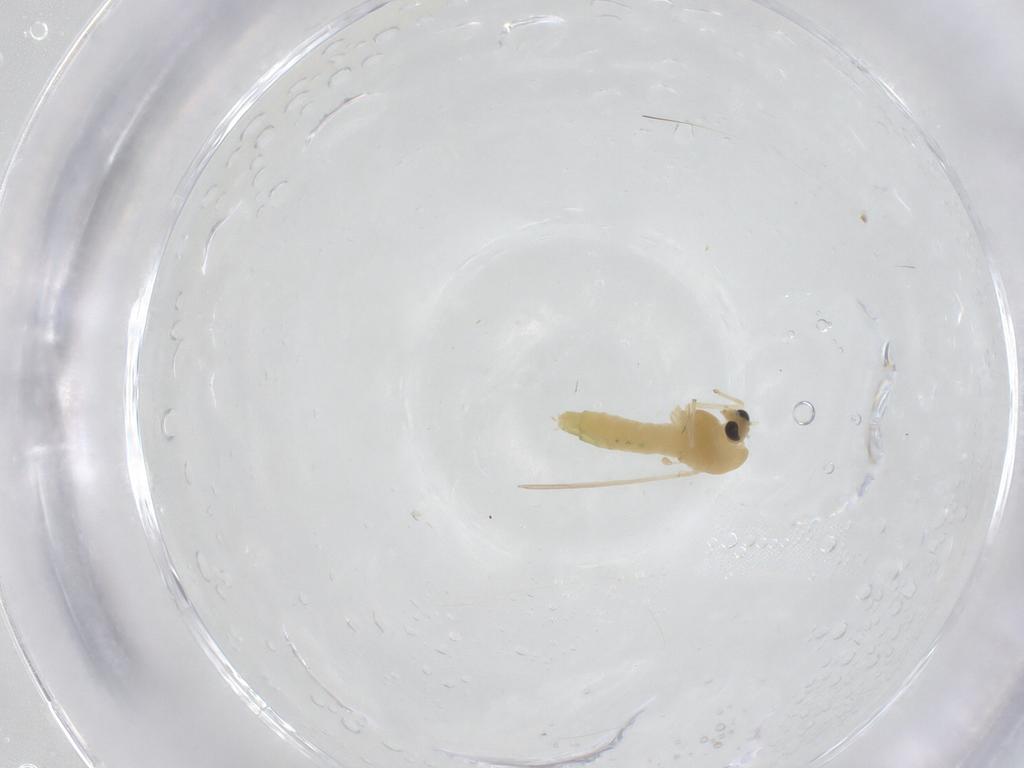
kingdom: Animalia
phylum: Arthropoda
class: Insecta
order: Diptera
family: Chironomidae
